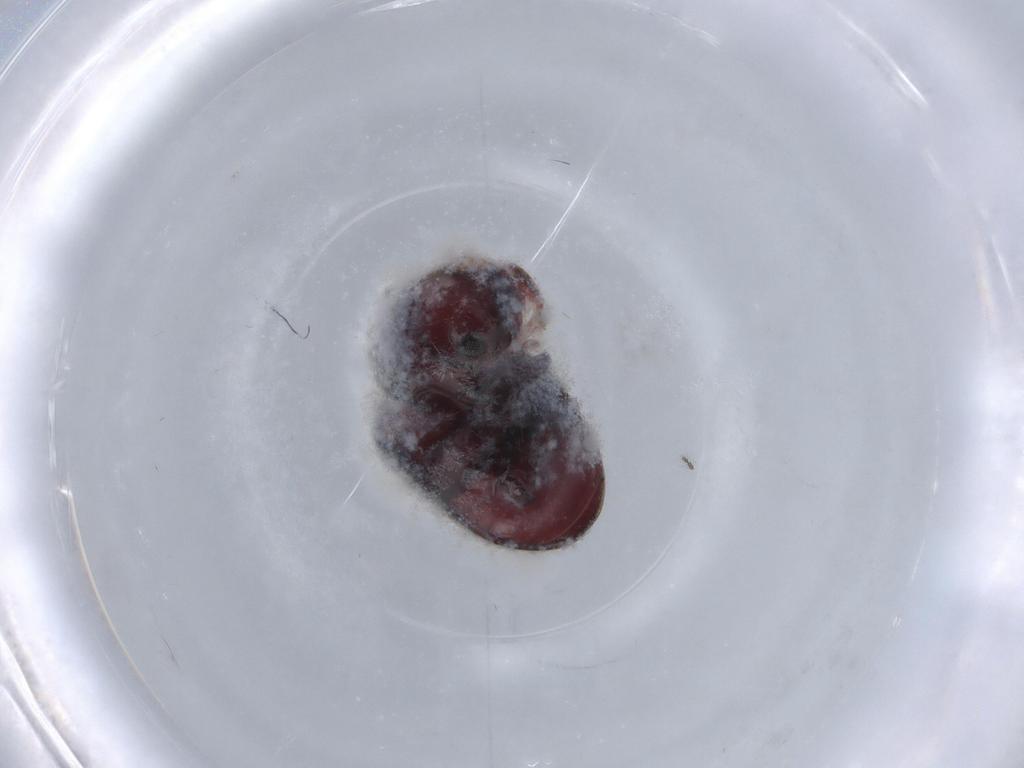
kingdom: Animalia
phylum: Arthropoda
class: Insecta
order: Coleoptera
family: Ptinidae
